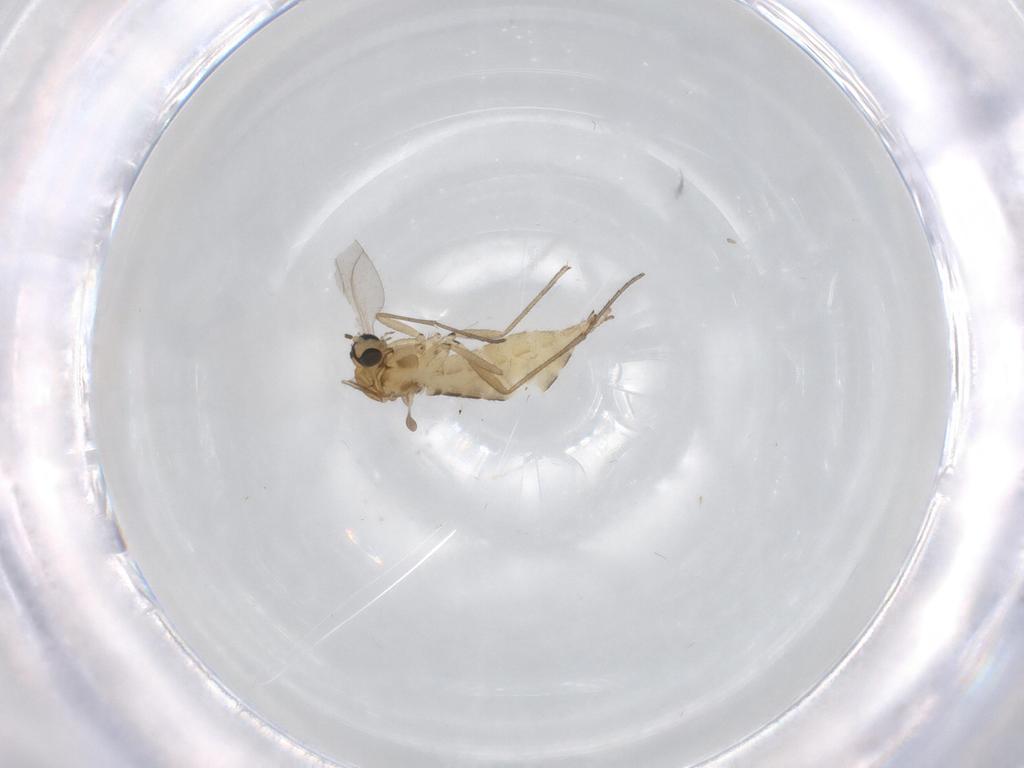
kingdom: Animalia
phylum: Arthropoda
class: Insecta
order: Diptera
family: Sciaridae
